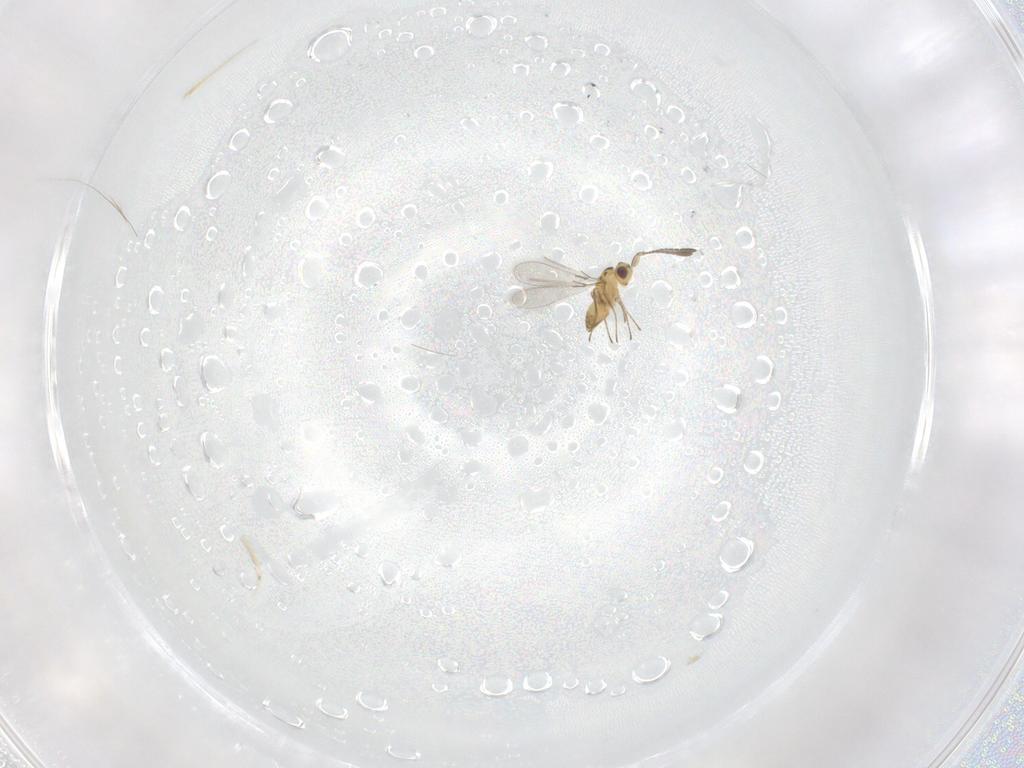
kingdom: Animalia
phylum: Arthropoda
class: Insecta
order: Hymenoptera
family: Mymaridae
